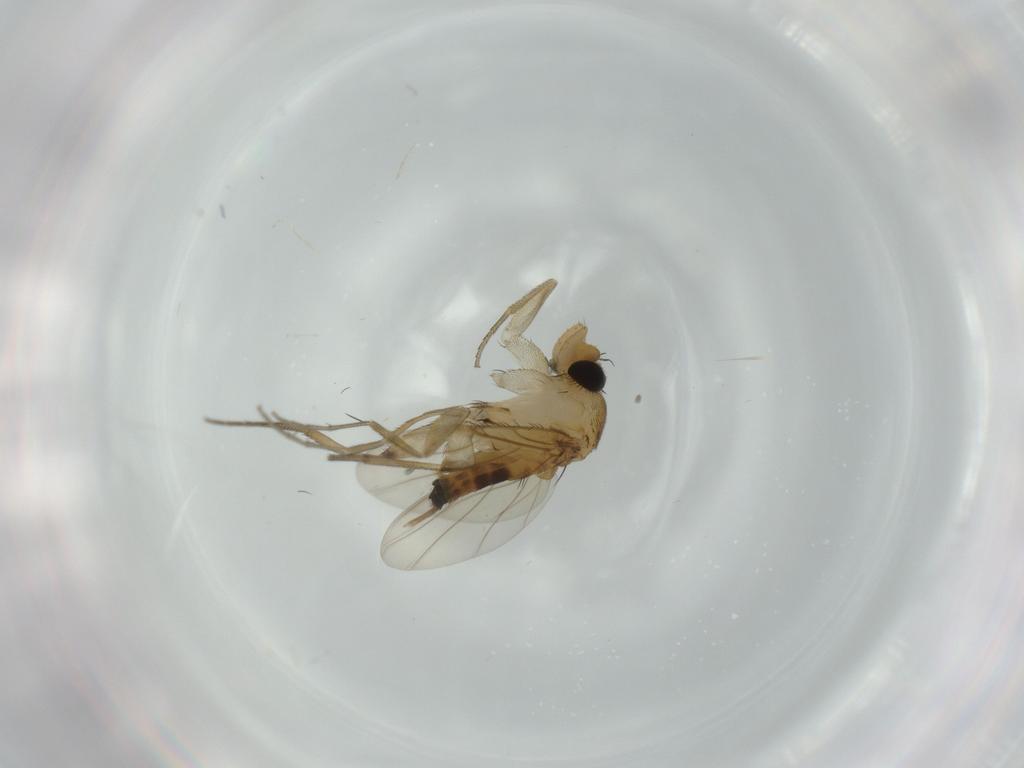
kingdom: Animalia
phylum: Arthropoda
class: Insecta
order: Diptera
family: Phoridae
